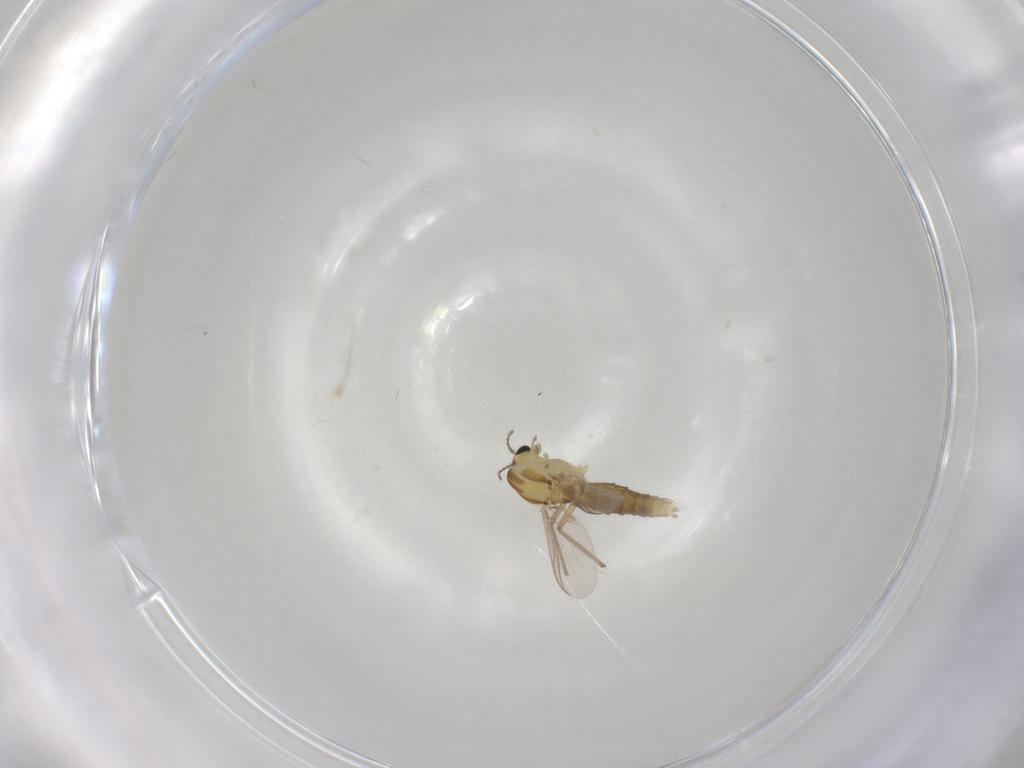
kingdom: Animalia
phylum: Arthropoda
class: Insecta
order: Diptera
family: Chironomidae
